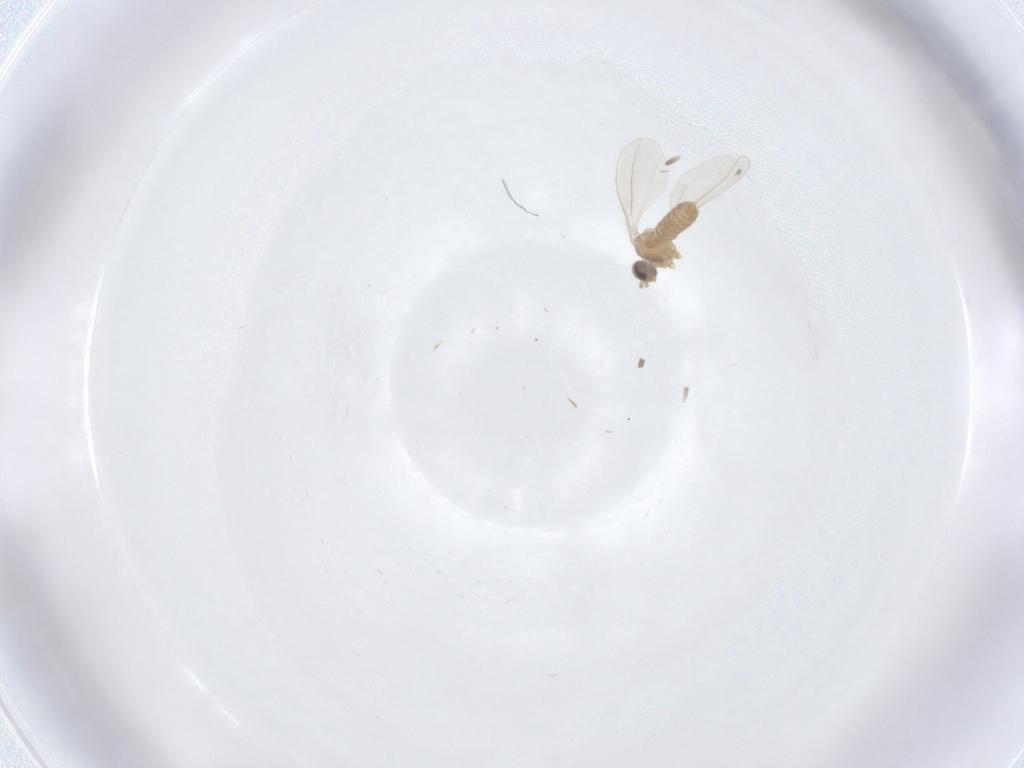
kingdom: Animalia
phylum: Arthropoda
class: Insecta
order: Diptera
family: Cecidomyiidae
